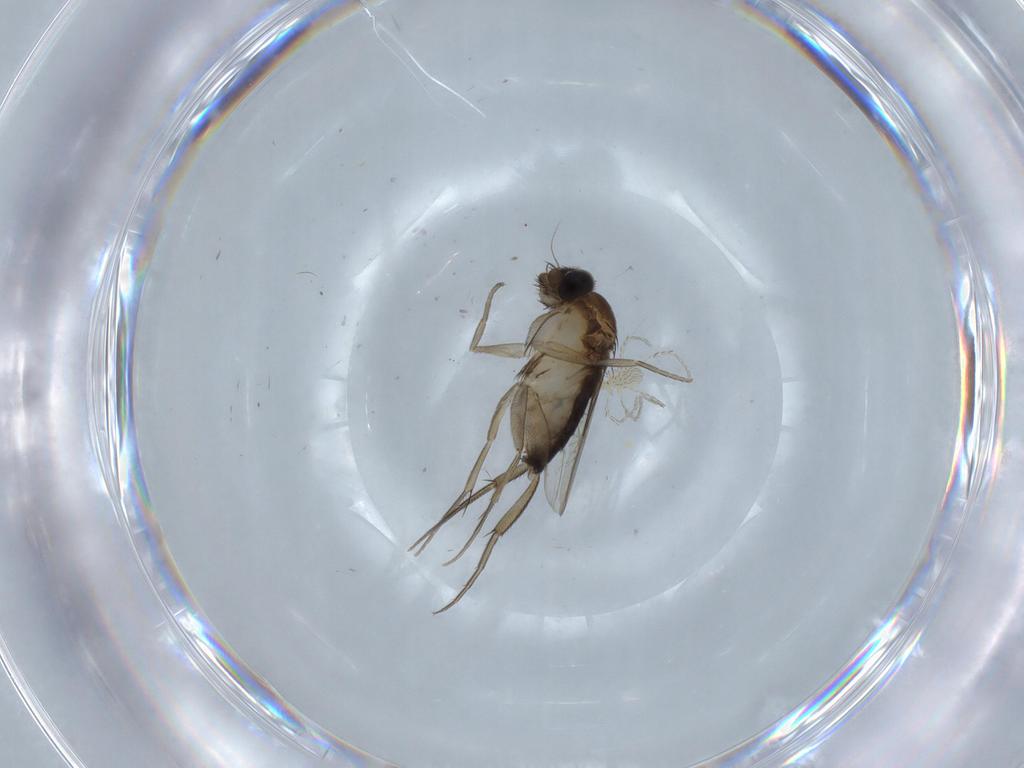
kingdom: Animalia
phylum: Arthropoda
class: Insecta
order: Diptera
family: Phoridae
